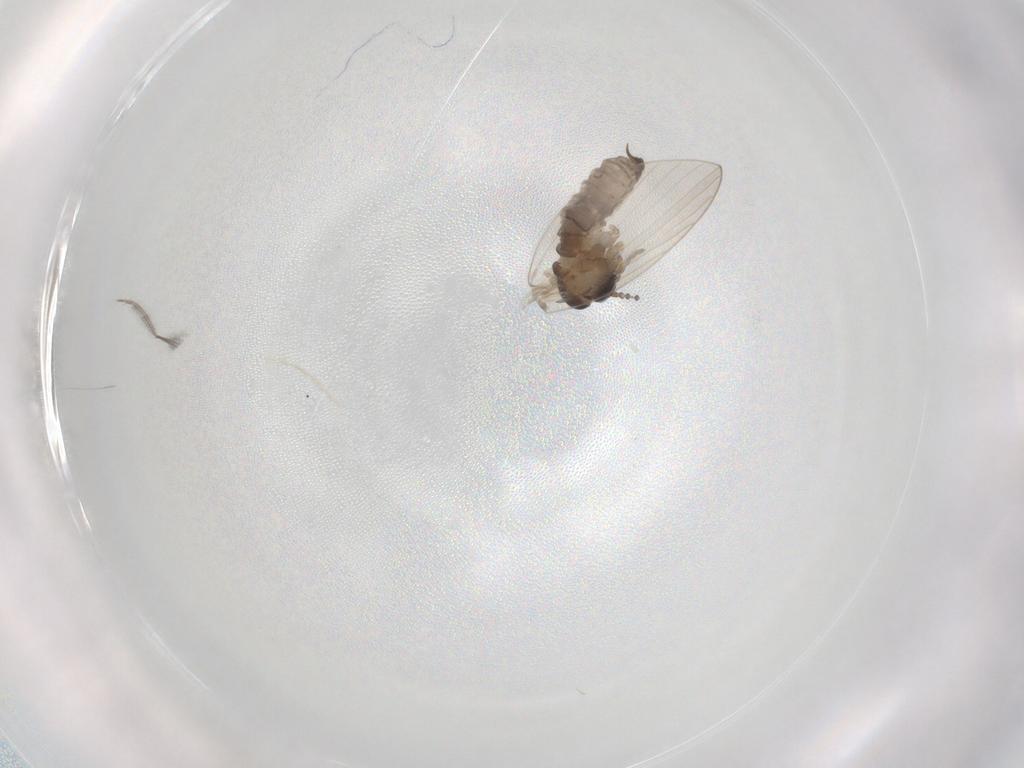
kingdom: Animalia
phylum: Arthropoda
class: Insecta
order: Diptera
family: Psychodidae
